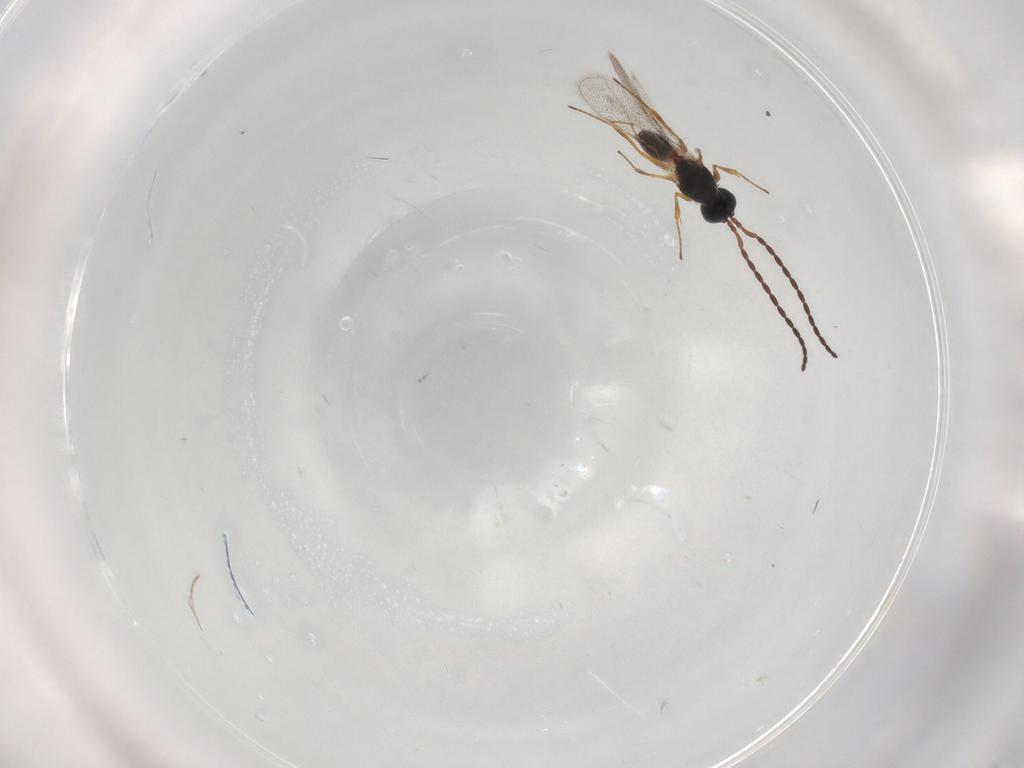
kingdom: Animalia
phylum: Arthropoda
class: Insecta
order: Hymenoptera
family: Figitidae
